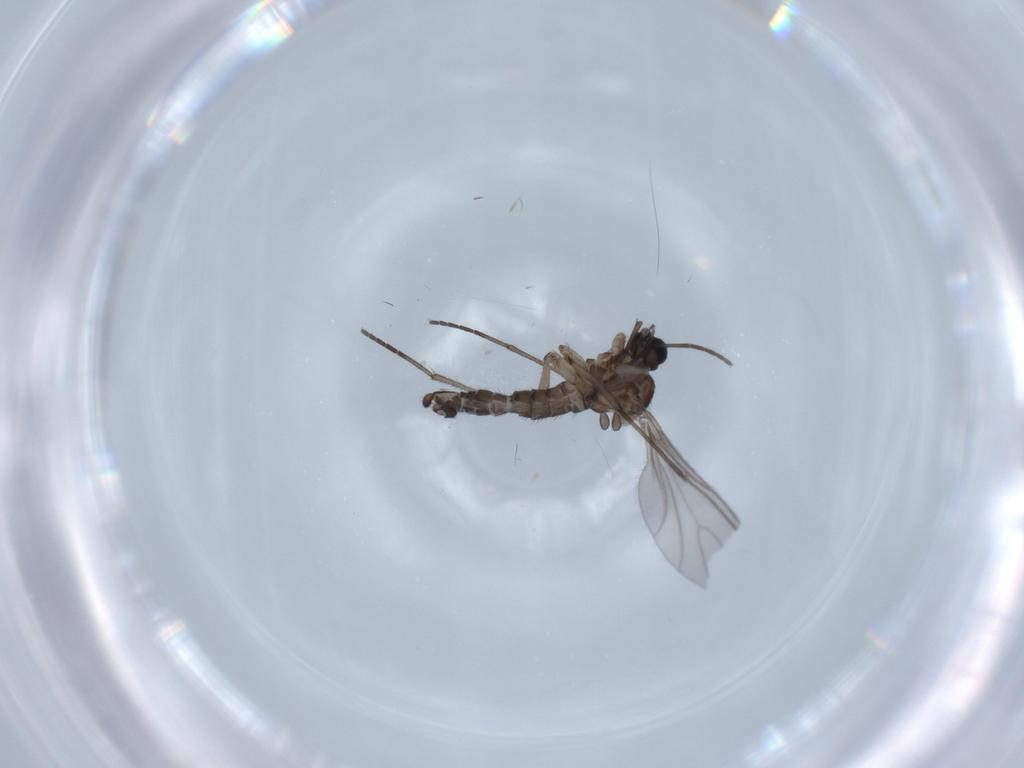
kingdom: Animalia
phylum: Arthropoda
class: Insecta
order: Diptera
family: Sciaridae
